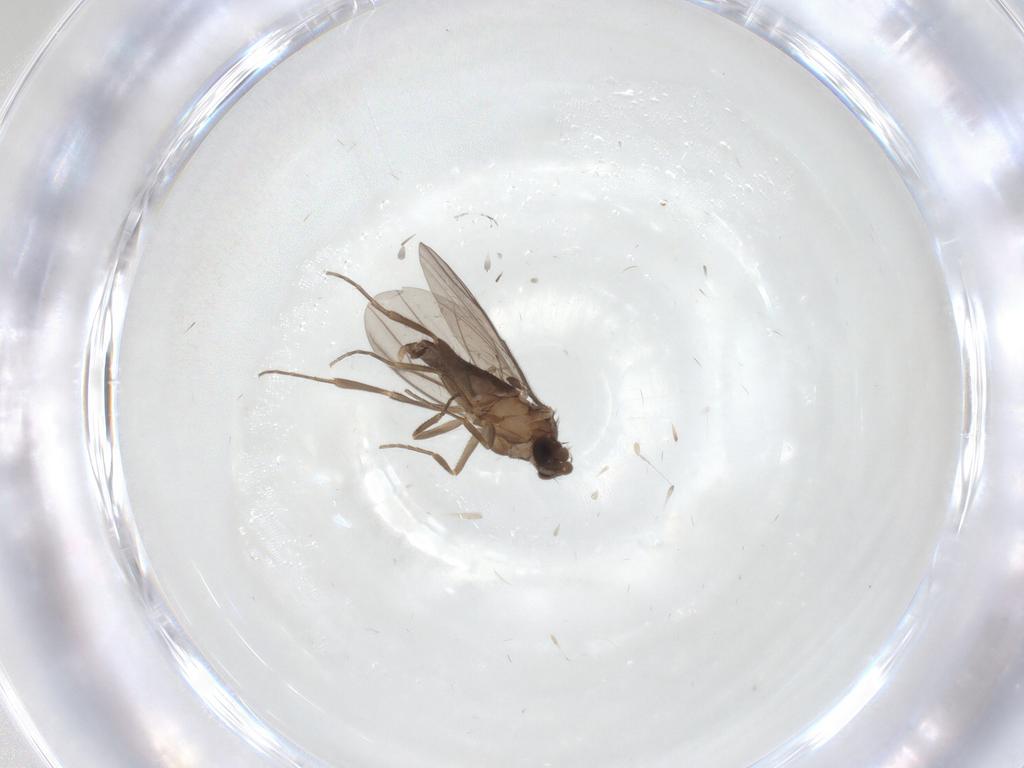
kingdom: Animalia
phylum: Arthropoda
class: Insecta
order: Diptera
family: Phoridae
